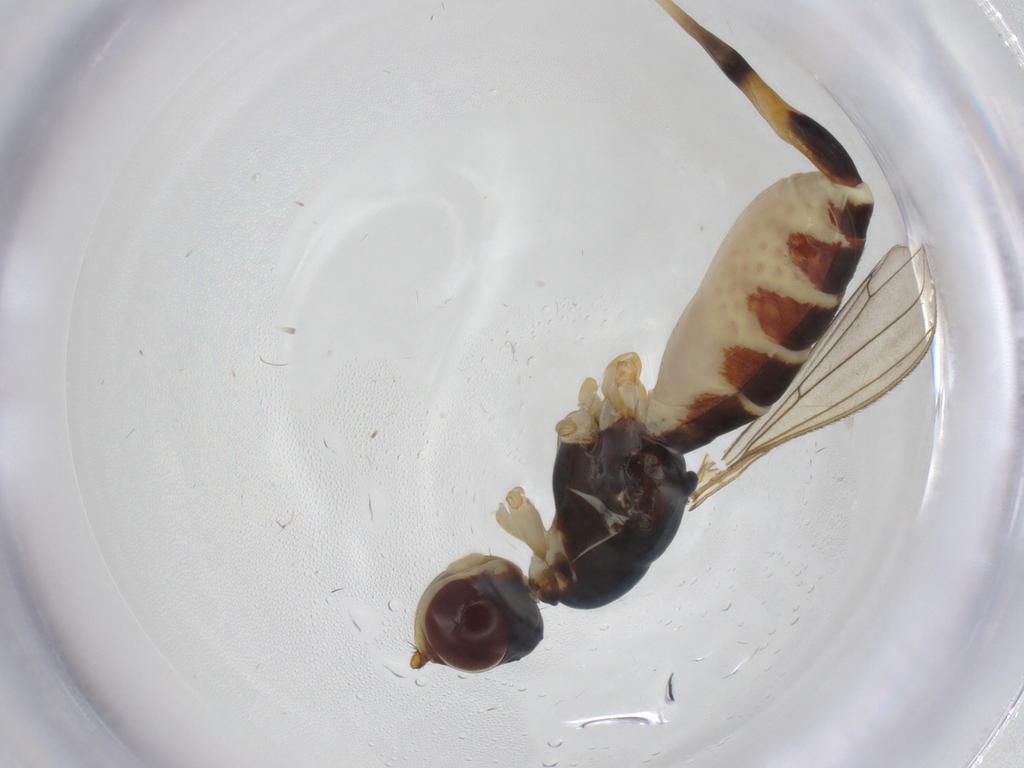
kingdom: Animalia
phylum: Arthropoda
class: Insecta
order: Diptera
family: Micropezidae
